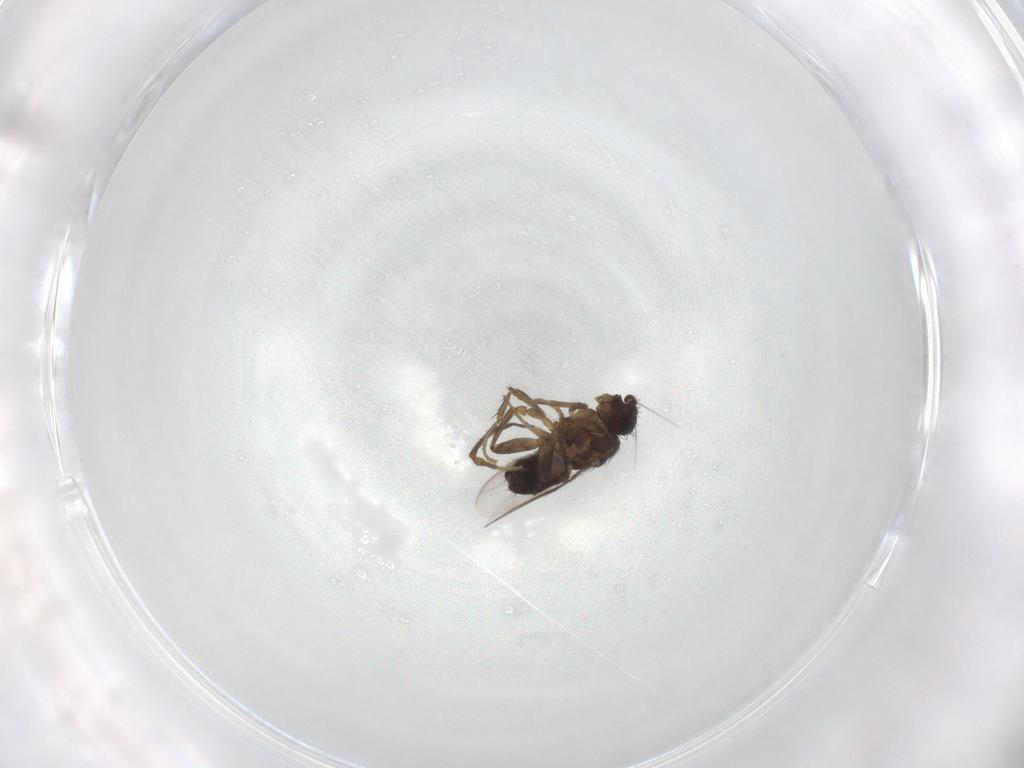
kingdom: Animalia
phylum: Arthropoda
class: Insecta
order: Diptera
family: Sphaeroceridae
